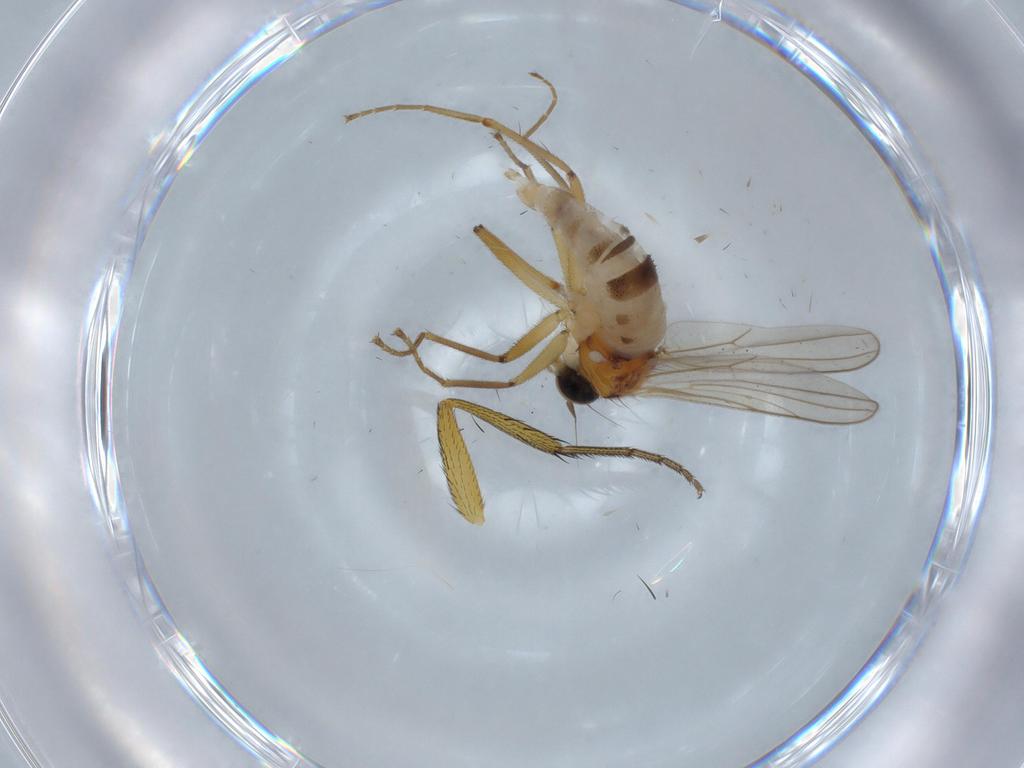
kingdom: Animalia
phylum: Arthropoda
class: Insecta
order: Diptera
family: Hybotidae
